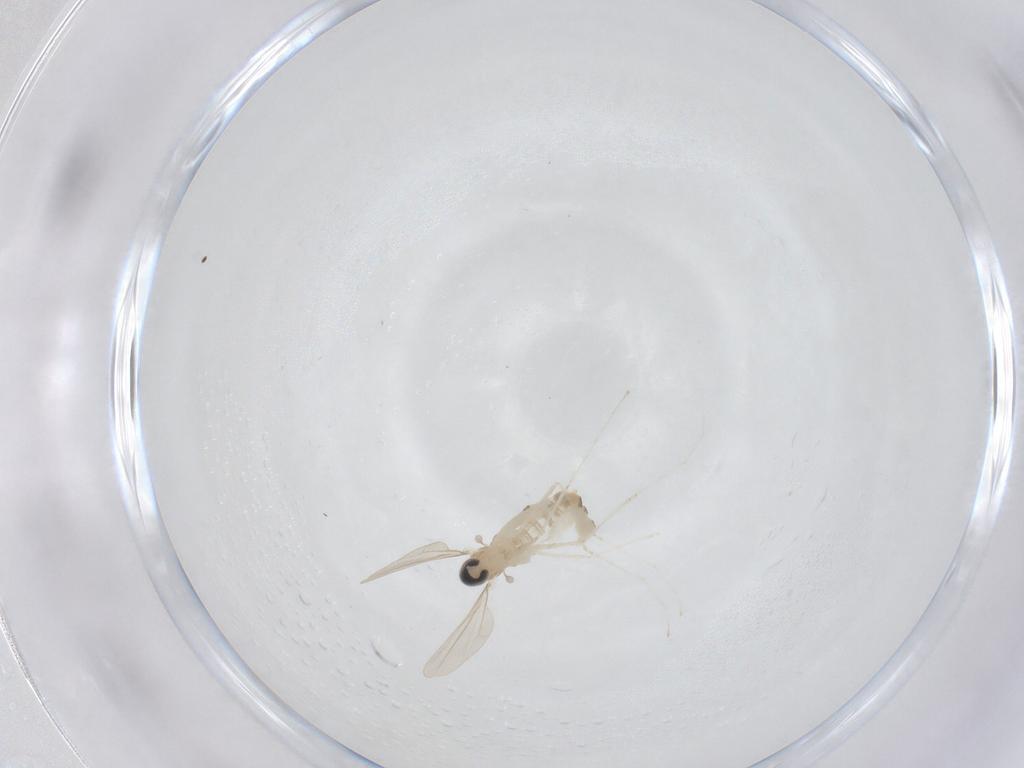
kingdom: Animalia
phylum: Arthropoda
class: Insecta
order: Diptera
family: Cecidomyiidae
